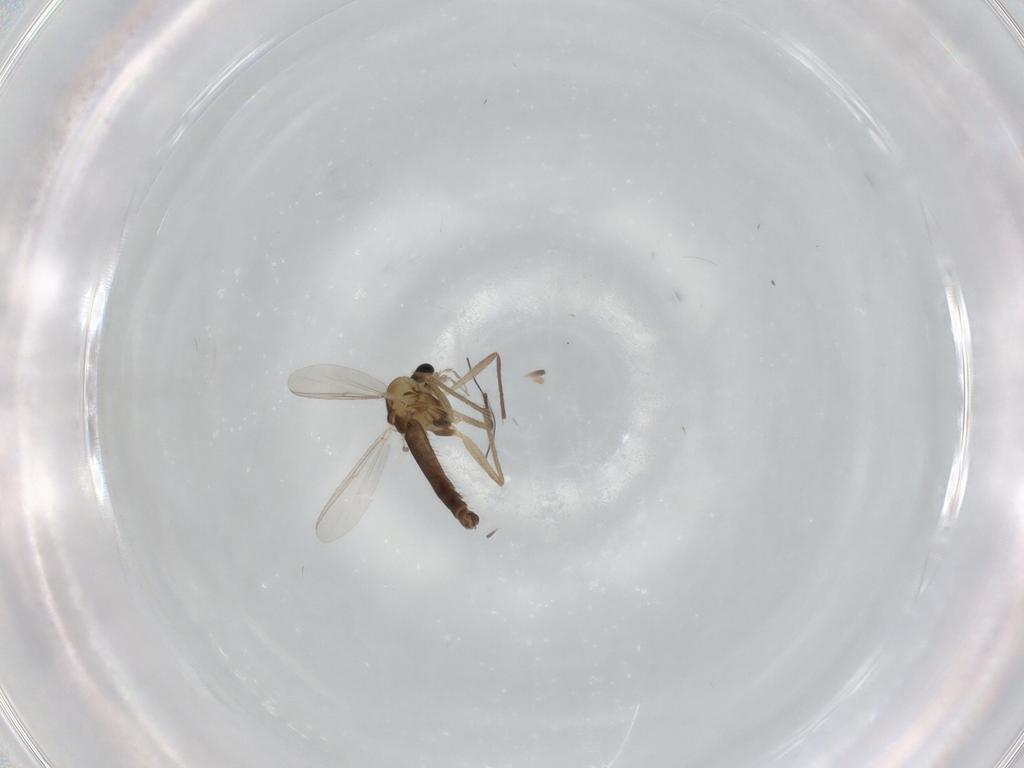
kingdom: Animalia
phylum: Arthropoda
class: Insecta
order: Diptera
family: Chironomidae
